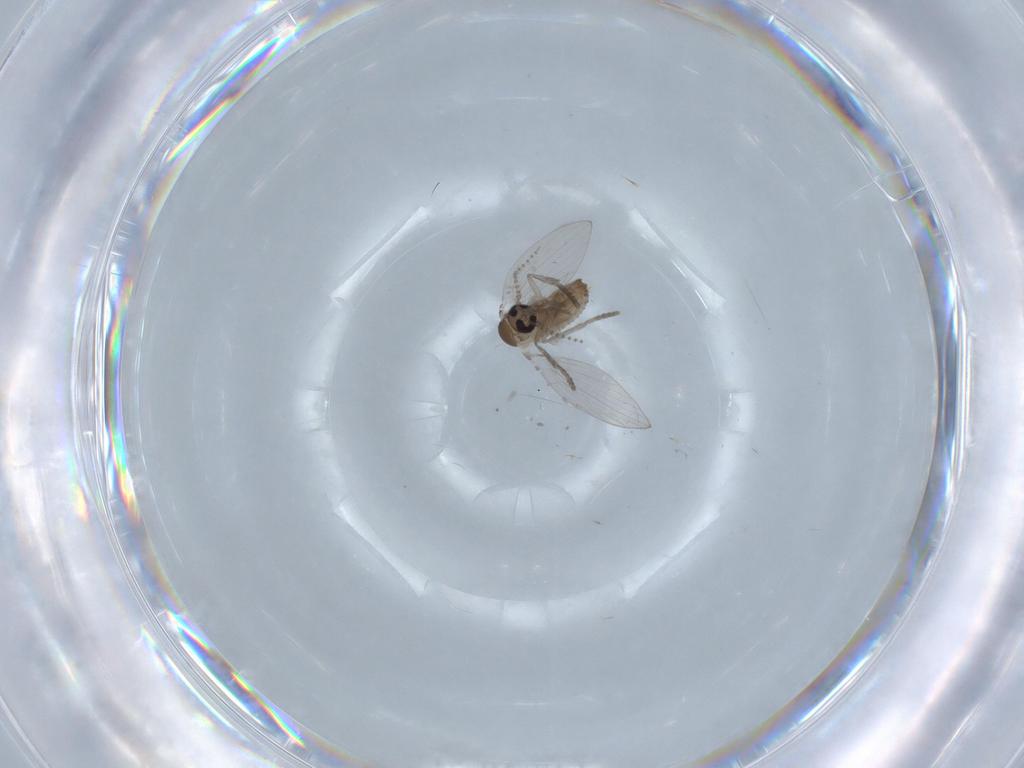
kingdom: Animalia
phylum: Arthropoda
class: Insecta
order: Diptera
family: Psychodidae
